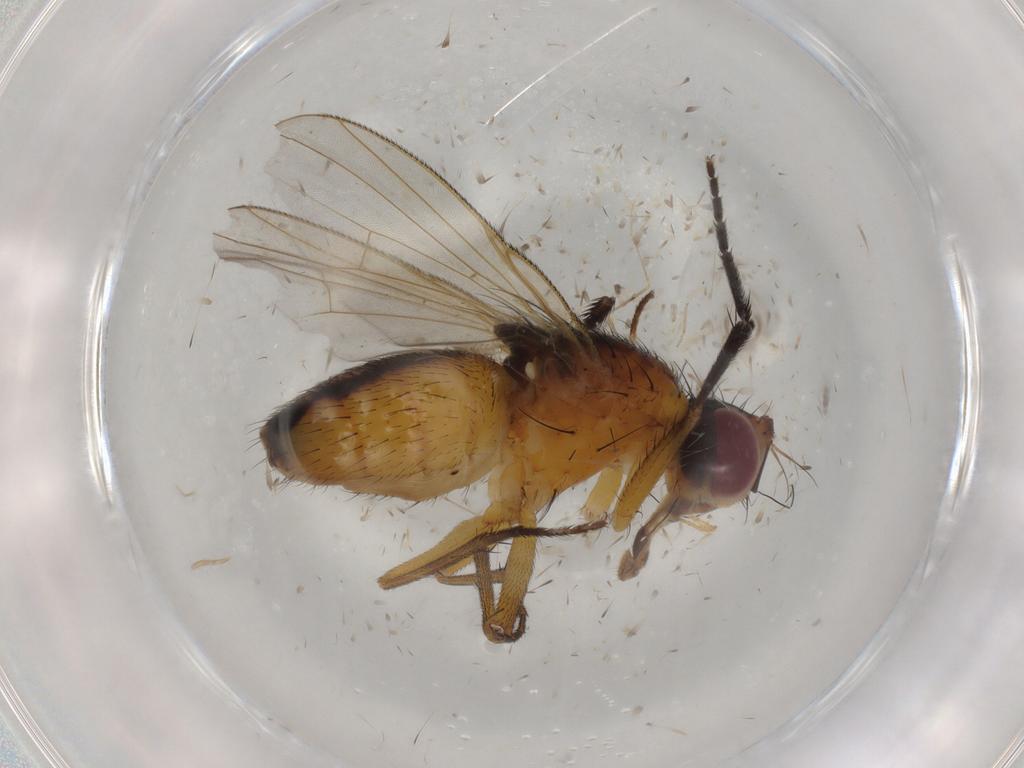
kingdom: Animalia
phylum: Arthropoda
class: Insecta
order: Diptera
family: Muscidae
